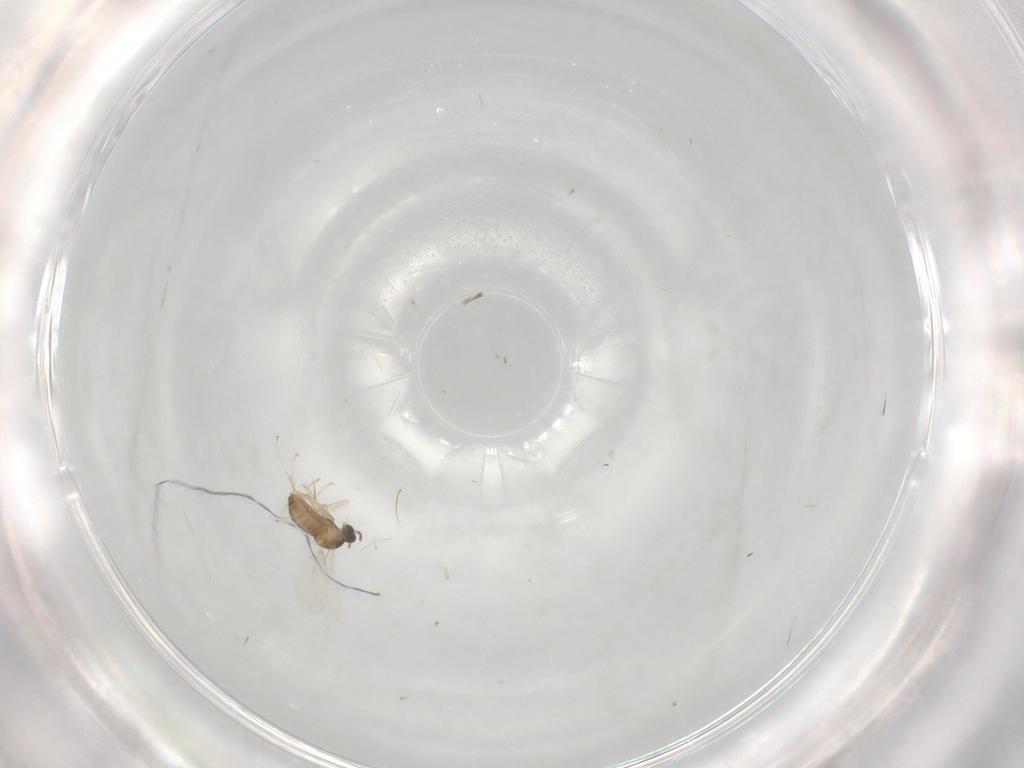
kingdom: Animalia
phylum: Arthropoda
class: Insecta
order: Diptera
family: Cecidomyiidae
